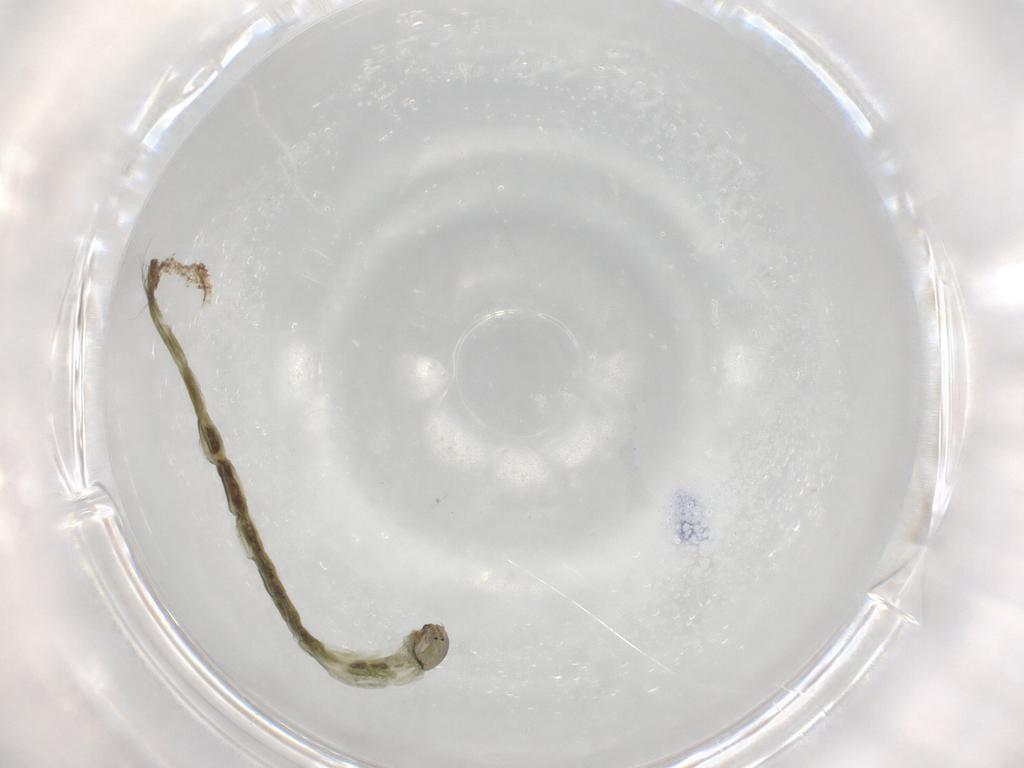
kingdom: Animalia
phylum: Arthropoda
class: Insecta
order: Diptera
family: Chironomidae
